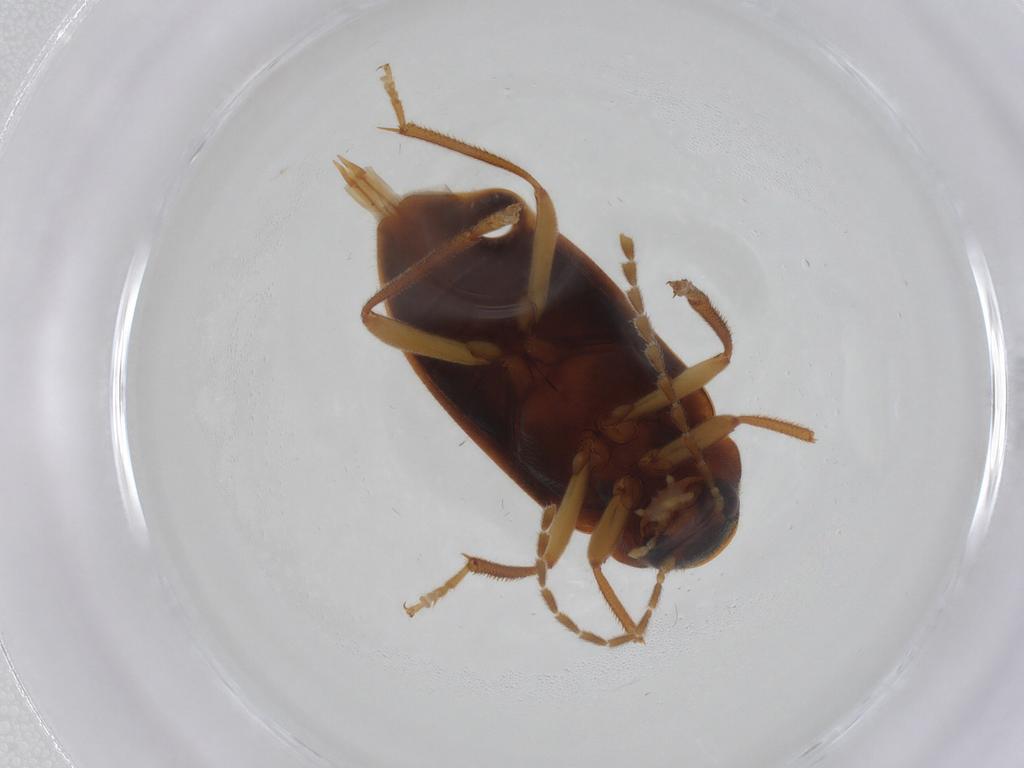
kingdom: Animalia
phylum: Arthropoda
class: Insecta
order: Coleoptera
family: Ptilodactylidae
